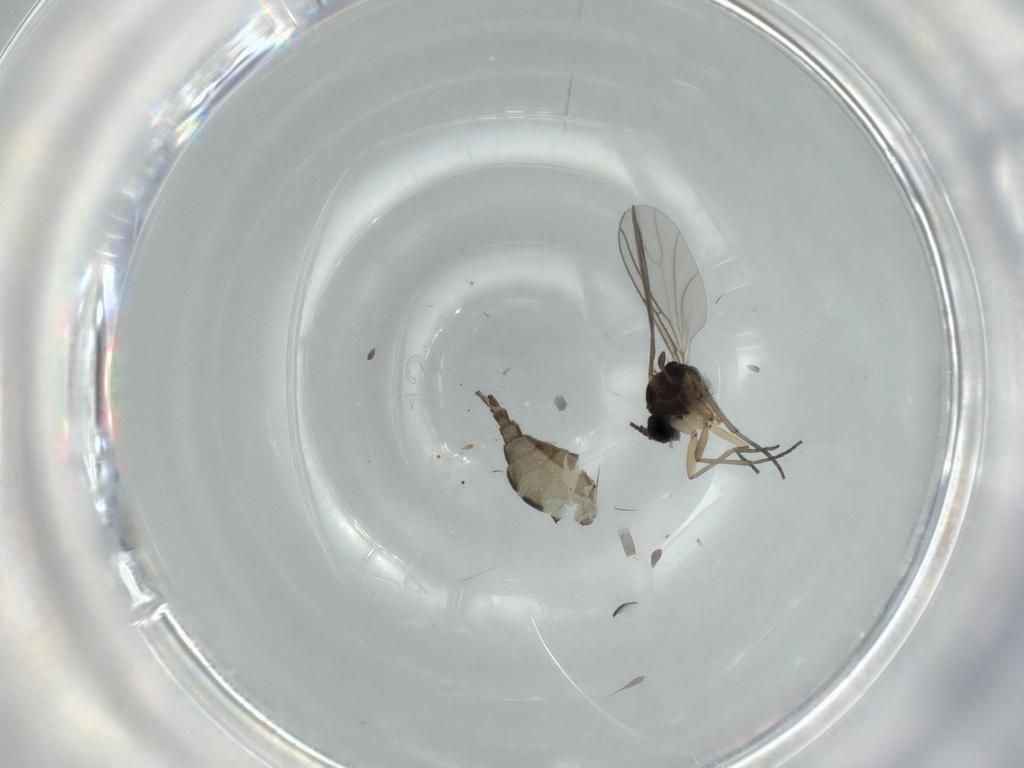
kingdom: Animalia
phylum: Arthropoda
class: Insecta
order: Diptera
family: Sciaridae
